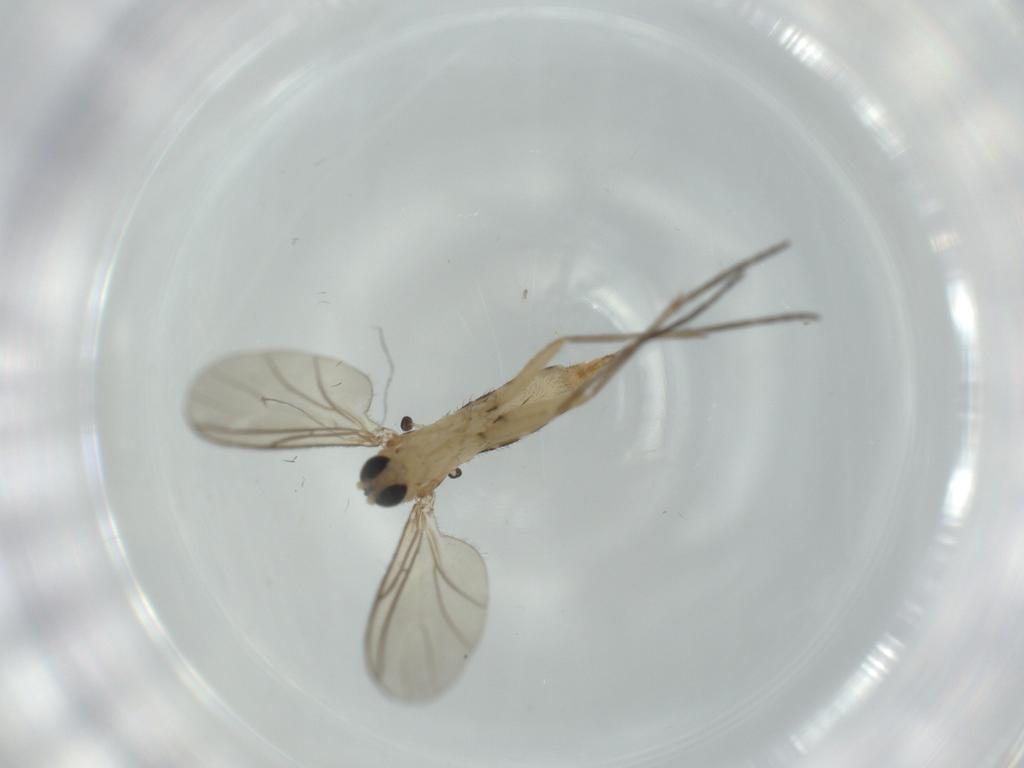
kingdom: Animalia
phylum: Arthropoda
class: Insecta
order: Diptera
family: Sciaridae
